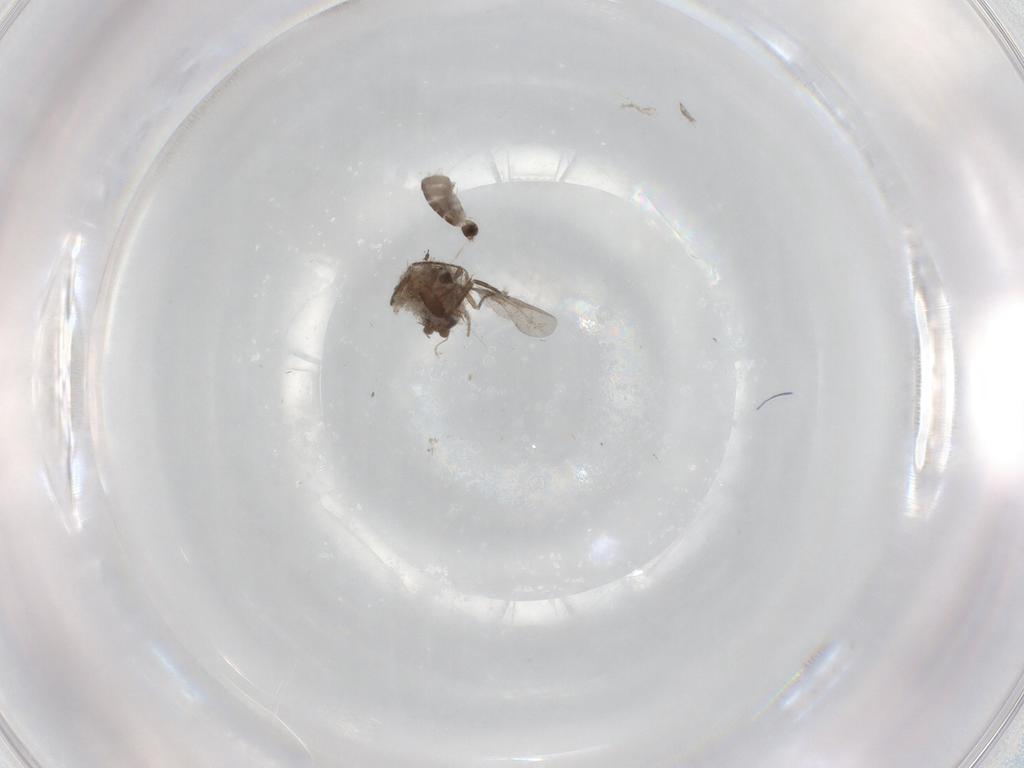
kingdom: Animalia
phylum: Arthropoda
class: Insecta
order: Diptera
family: Phoridae
